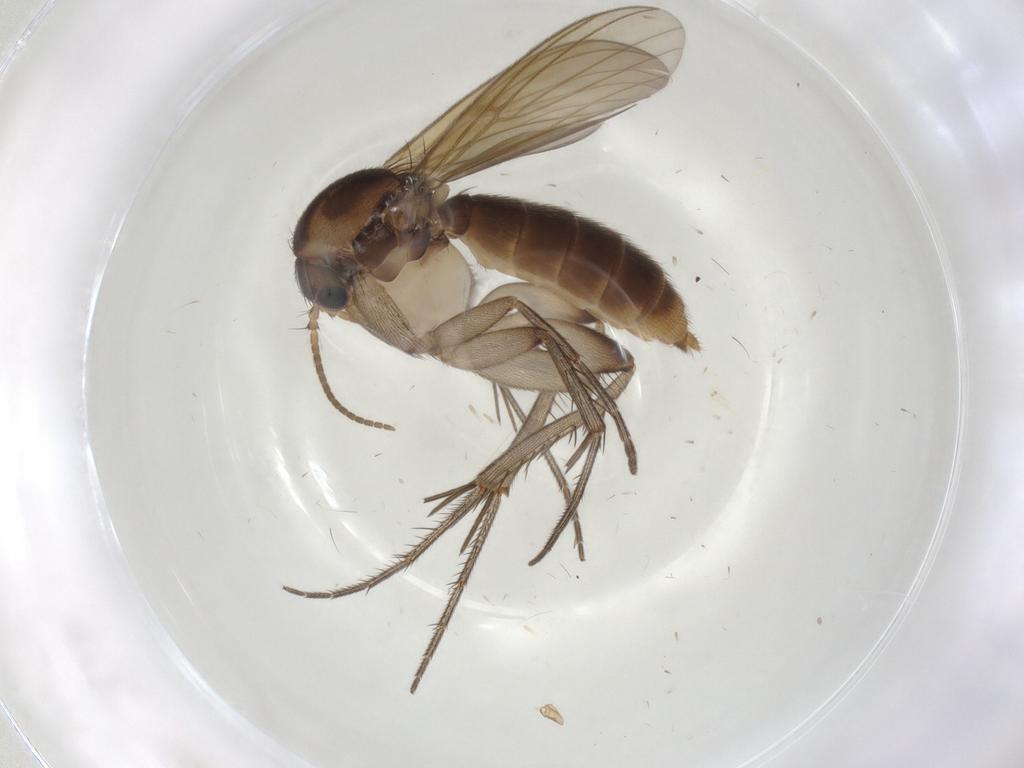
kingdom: Animalia
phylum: Arthropoda
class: Insecta
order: Diptera
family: Mycetophilidae
